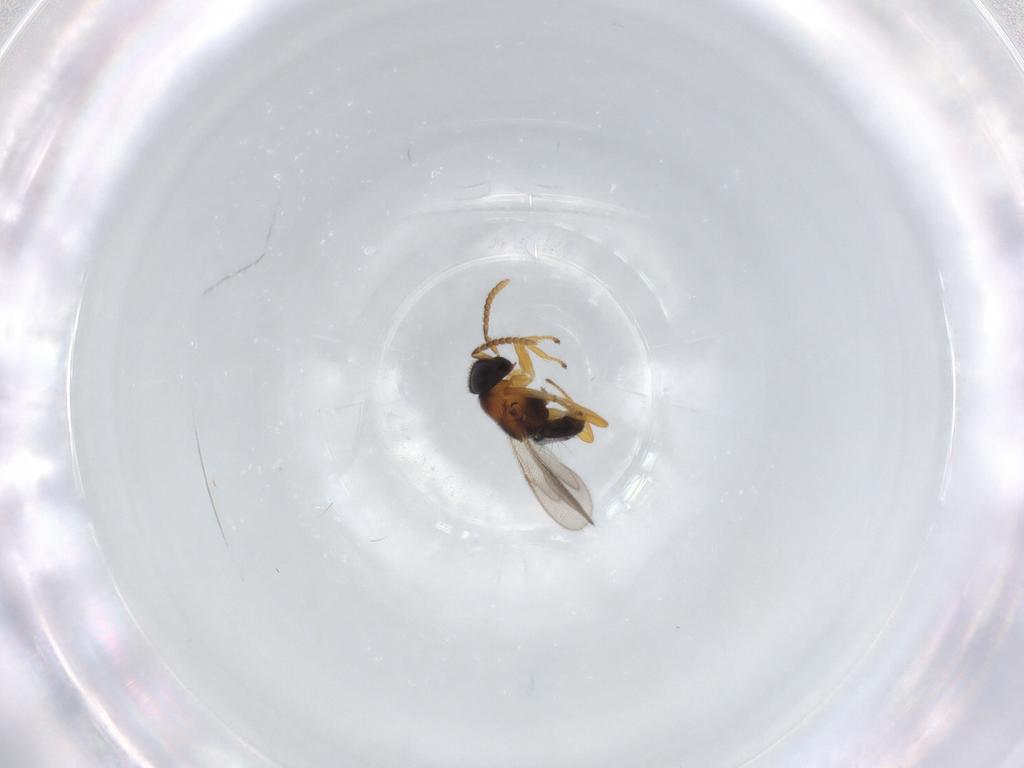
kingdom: Animalia
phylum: Arthropoda
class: Insecta
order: Hymenoptera
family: Encyrtidae
